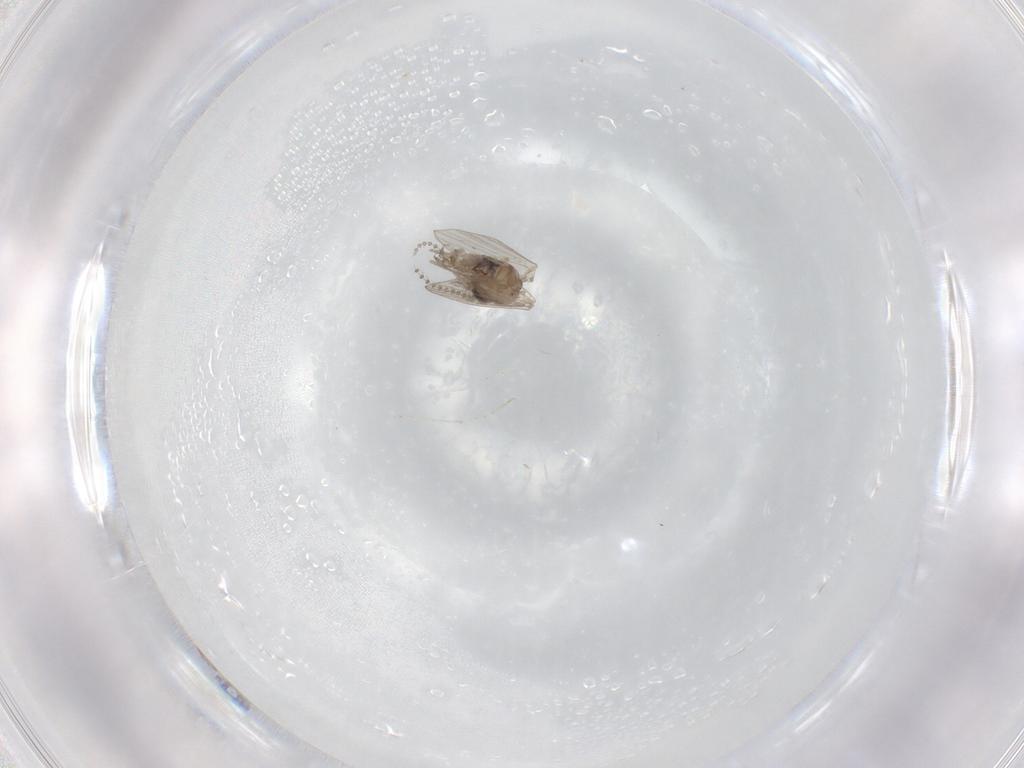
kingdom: Animalia
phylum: Arthropoda
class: Insecta
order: Diptera
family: Psychodidae
